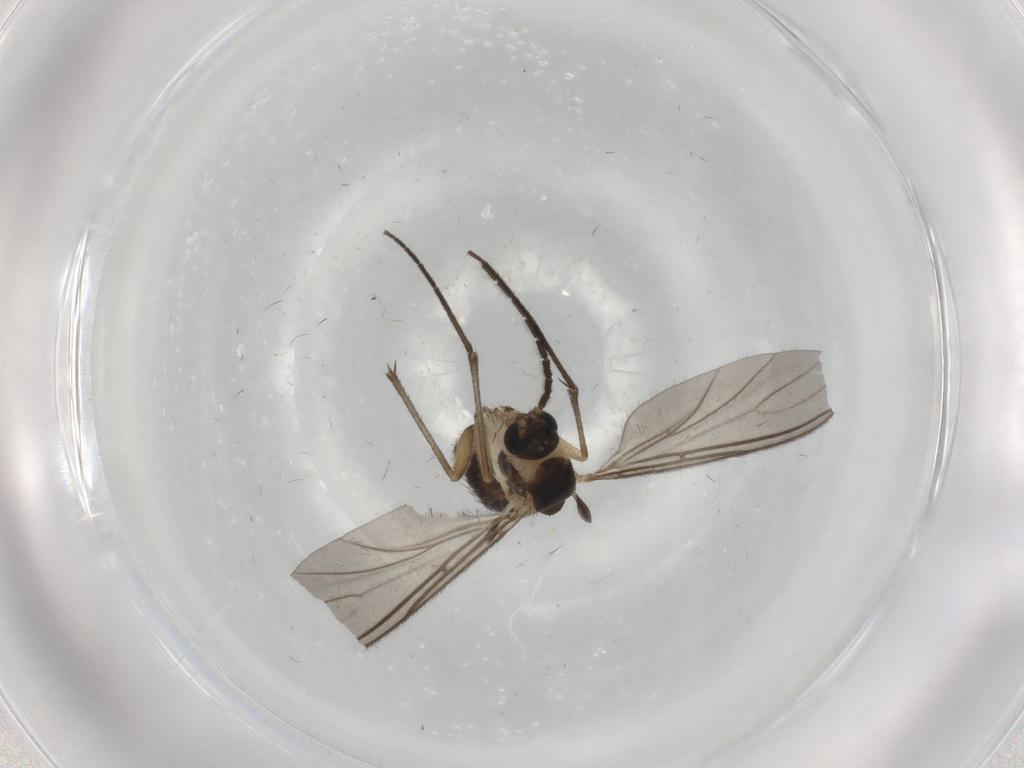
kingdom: Animalia
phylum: Arthropoda
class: Insecta
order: Diptera
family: Sciaridae
